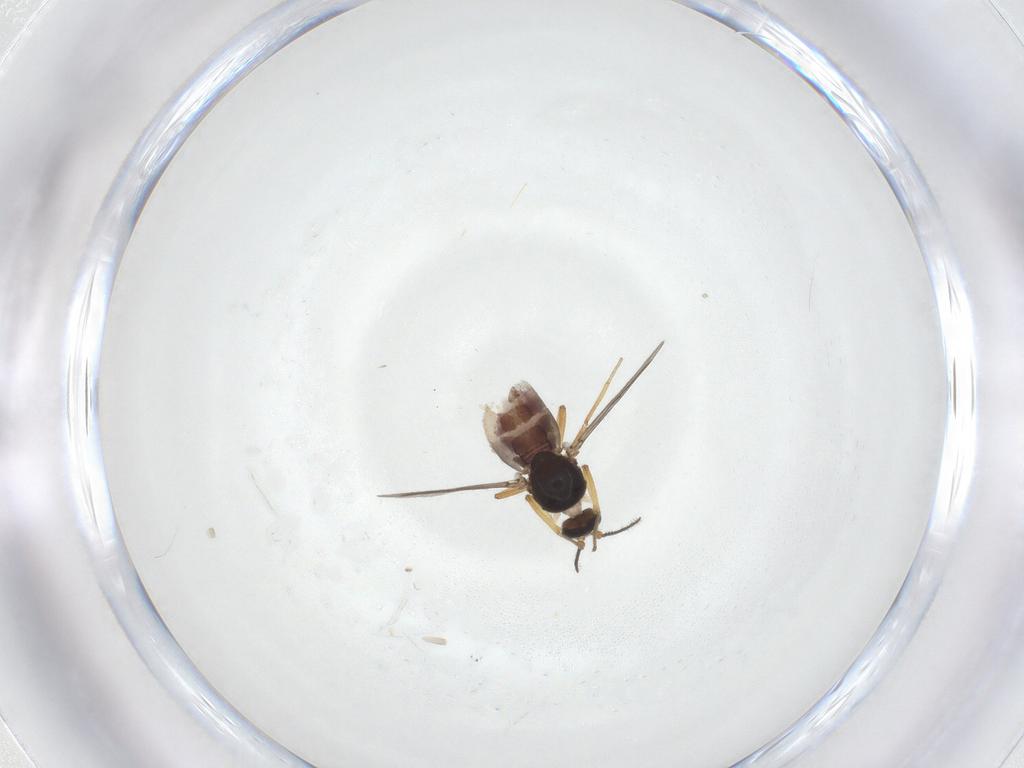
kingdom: Animalia
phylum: Arthropoda
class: Insecta
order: Diptera
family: Ceratopogonidae
